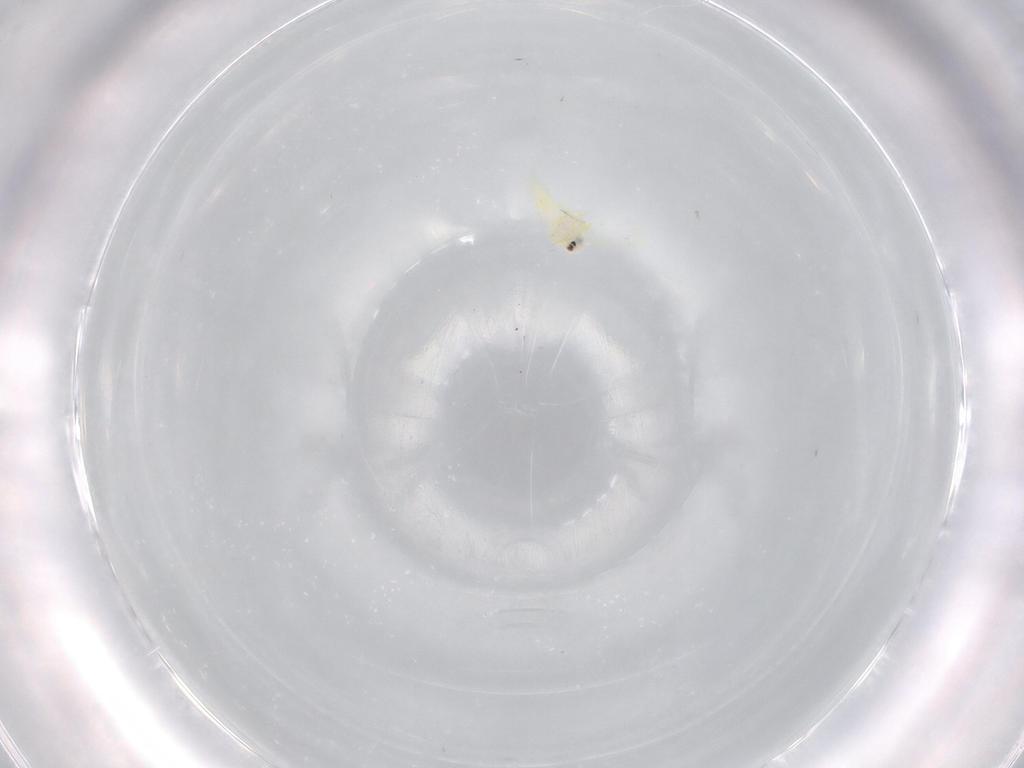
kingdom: Animalia
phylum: Arthropoda
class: Insecta
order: Hemiptera
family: Aleyrodidae
